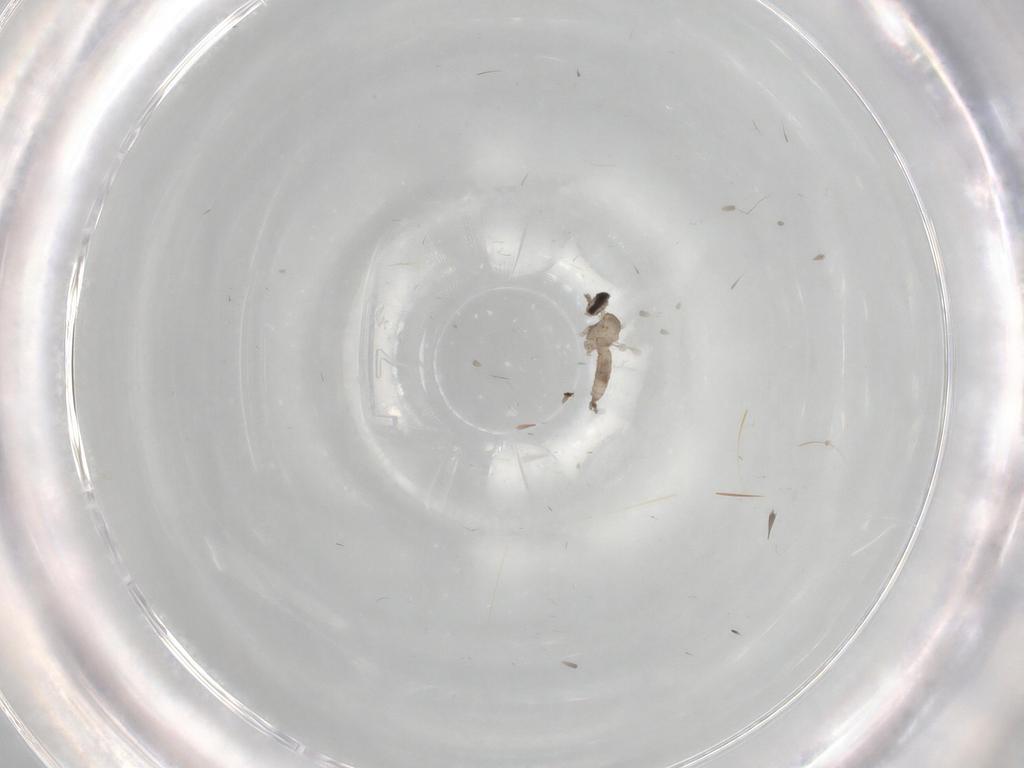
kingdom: Animalia
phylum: Arthropoda
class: Insecta
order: Diptera
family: Cecidomyiidae
